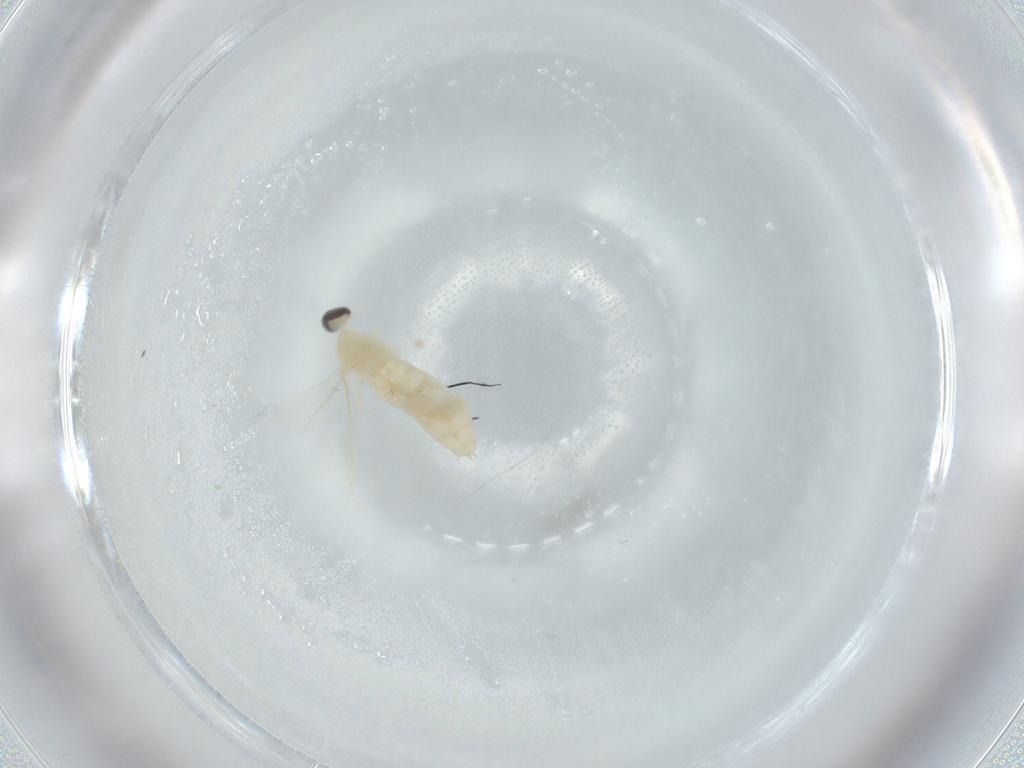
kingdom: Animalia
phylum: Arthropoda
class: Insecta
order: Diptera
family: Cecidomyiidae
